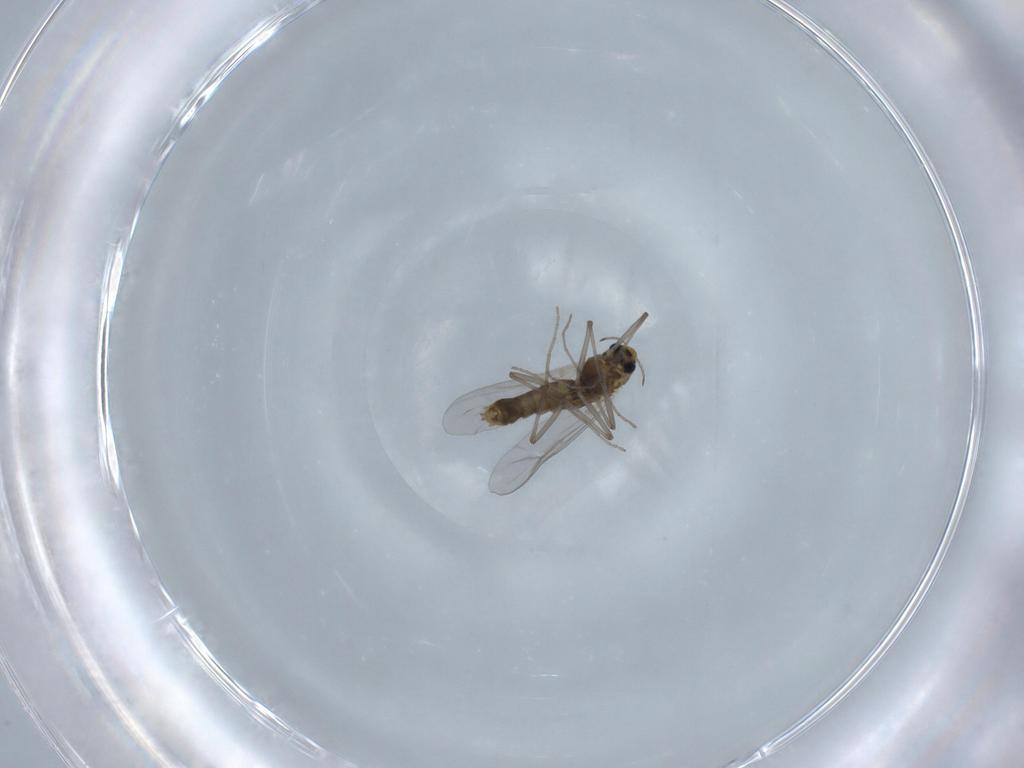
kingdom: Animalia
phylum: Arthropoda
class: Insecta
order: Diptera
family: Chironomidae
